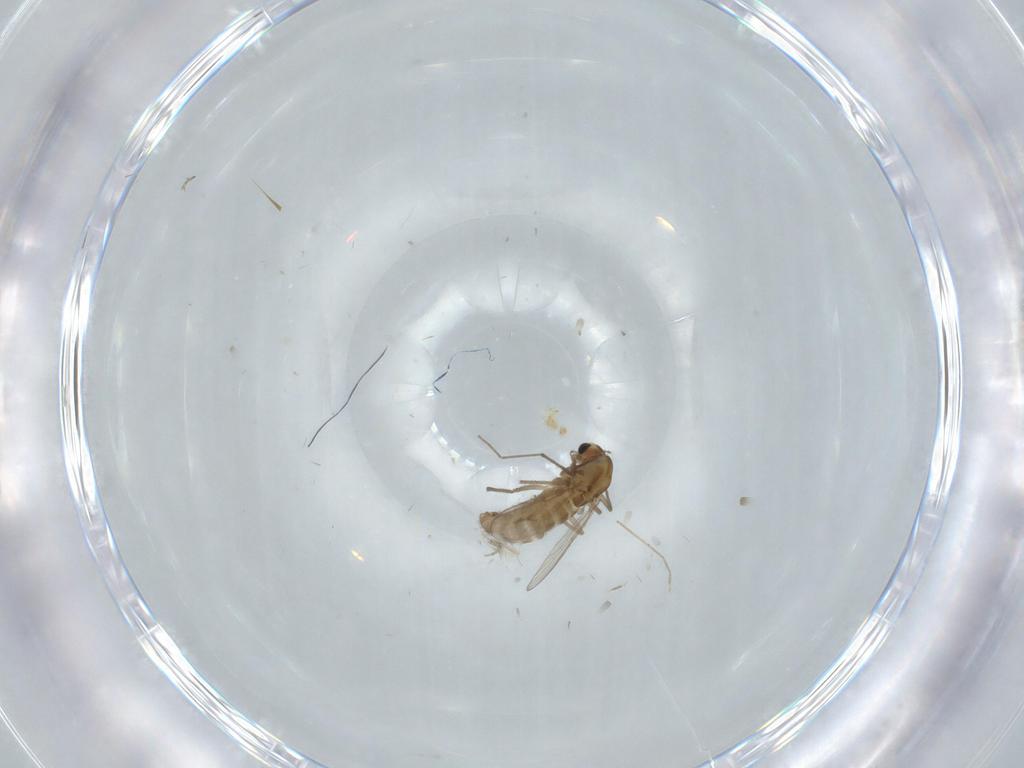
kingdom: Animalia
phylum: Arthropoda
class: Insecta
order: Diptera
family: Chironomidae
